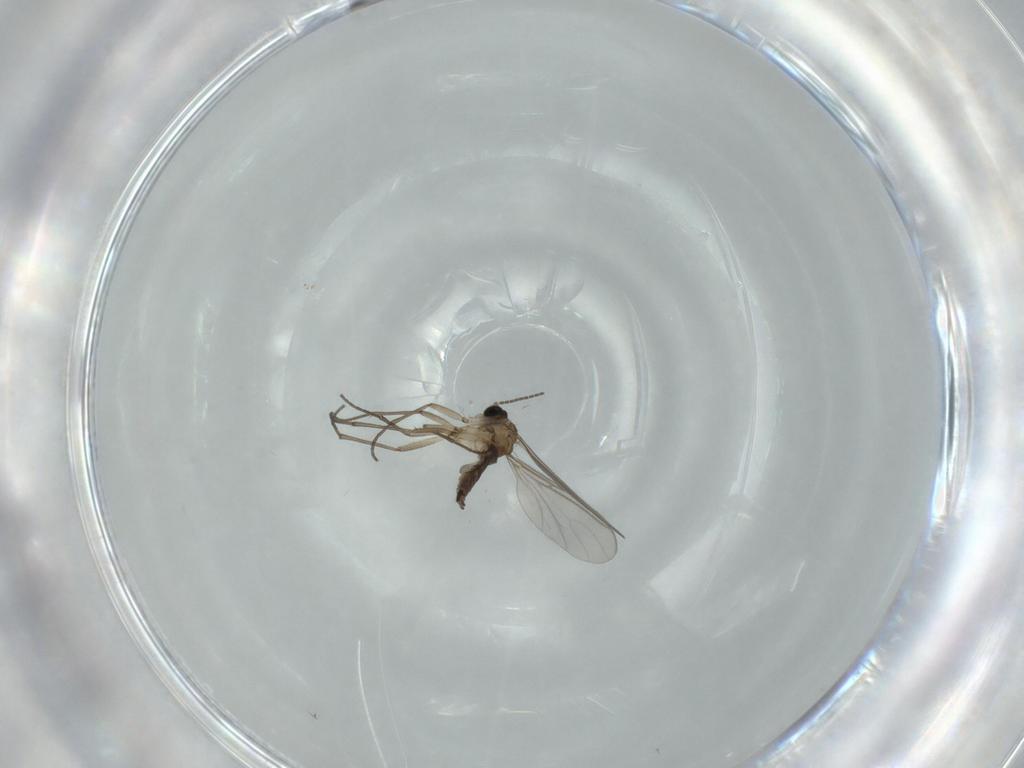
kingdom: Animalia
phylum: Arthropoda
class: Insecta
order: Diptera
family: Sciaridae
